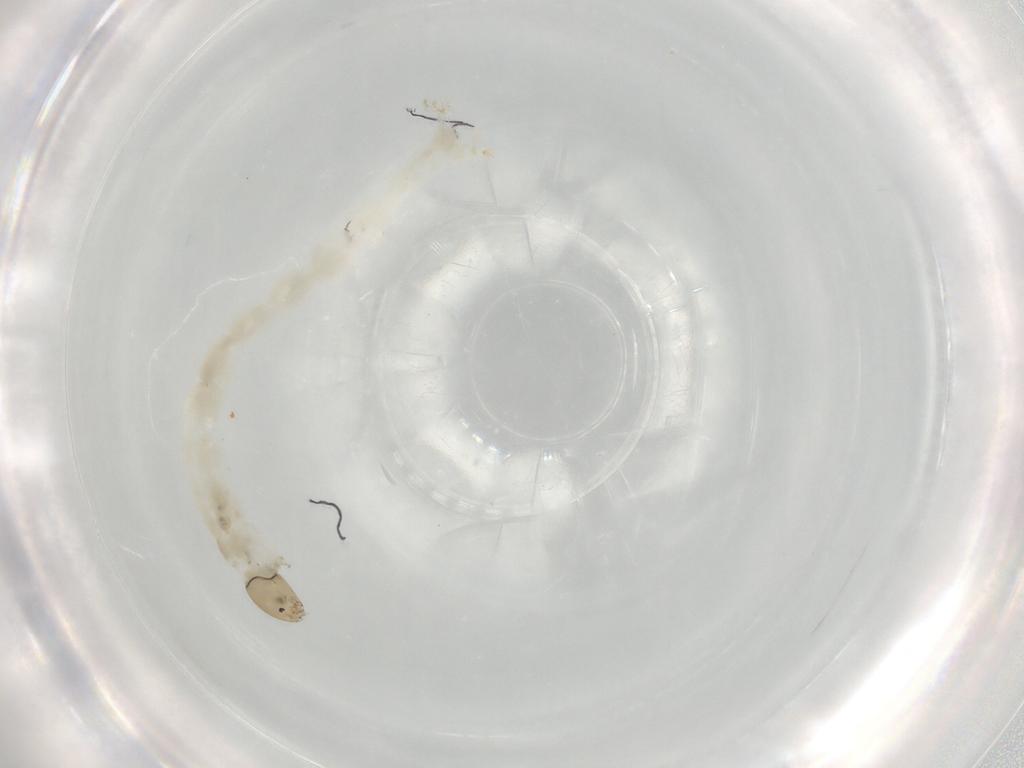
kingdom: Animalia
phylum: Arthropoda
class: Insecta
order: Diptera
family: Chironomidae
